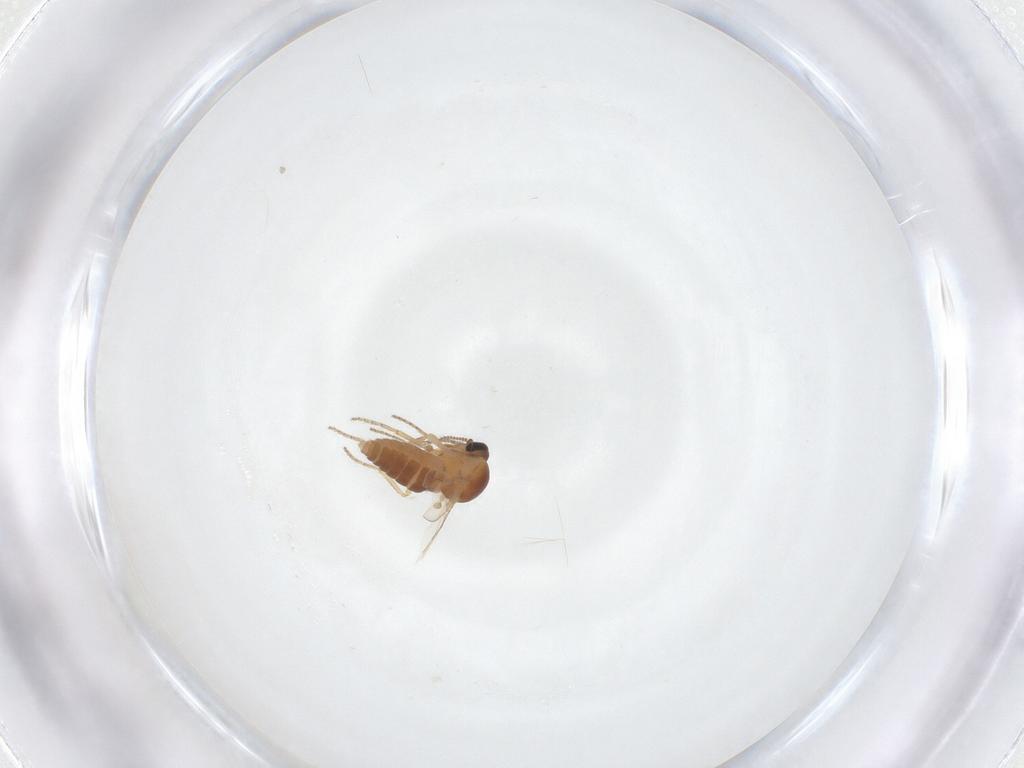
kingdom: Animalia
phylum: Arthropoda
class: Insecta
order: Diptera
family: Ceratopogonidae
